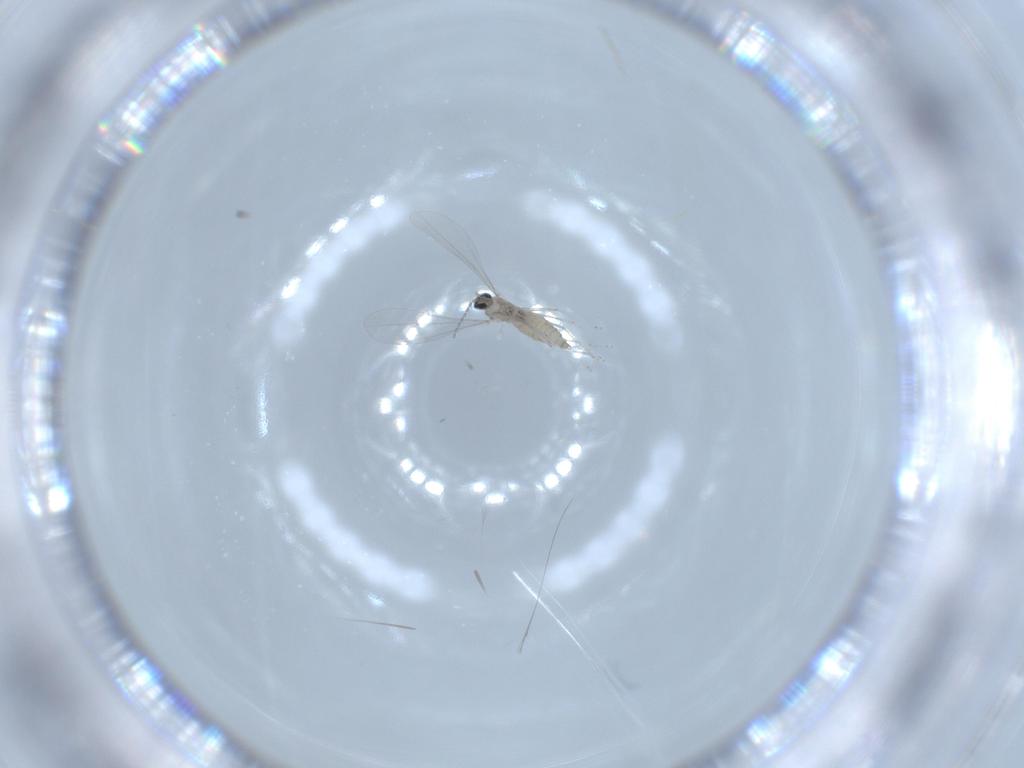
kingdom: Animalia
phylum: Arthropoda
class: Insecta
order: Diptera
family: Cecidomyiidae
